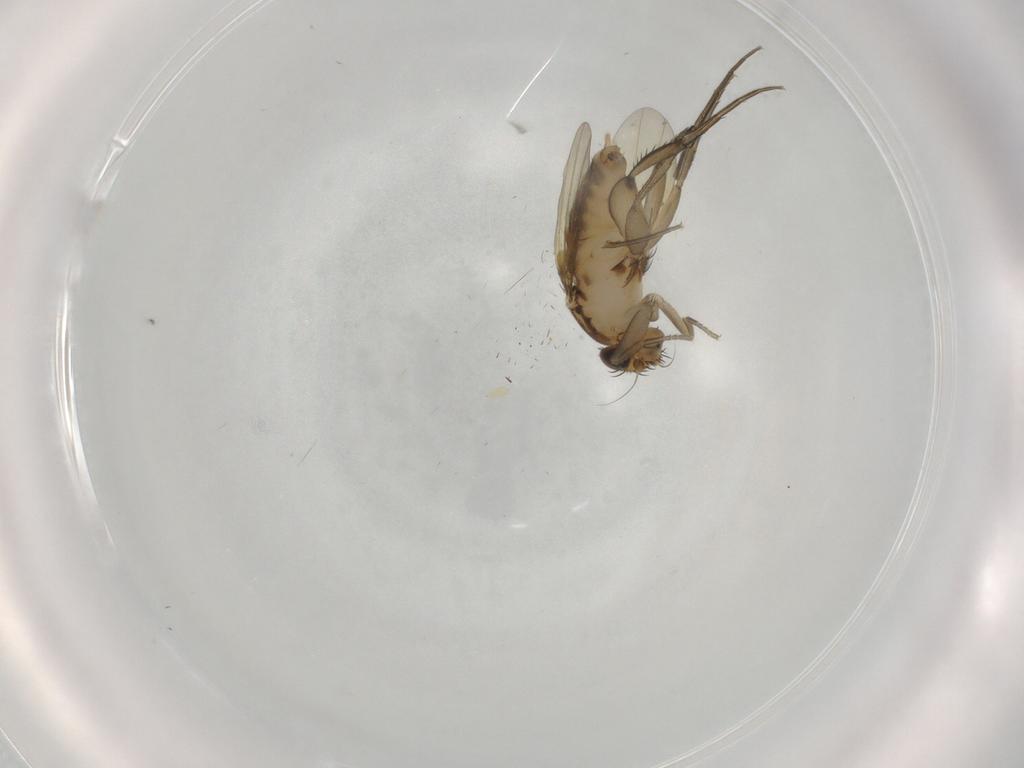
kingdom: Animalia
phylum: Arthropoda
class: Insecta
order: Diptera
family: Phoridae
